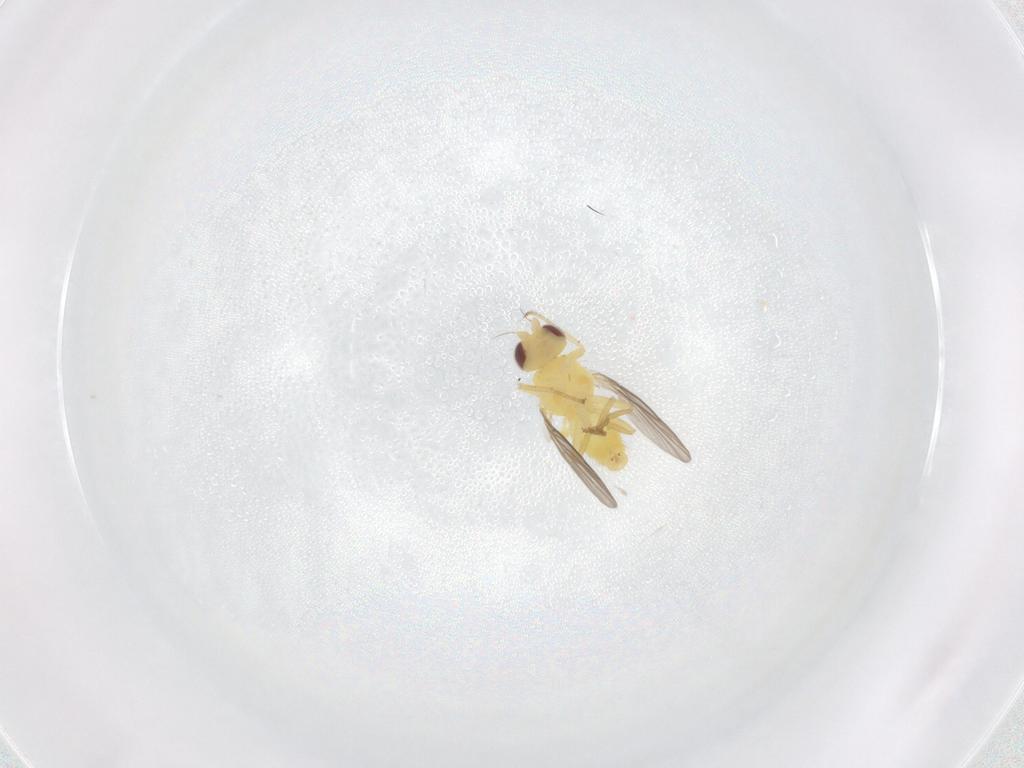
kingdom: Animalia
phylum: Arthropoda
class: Insecta
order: Diptera
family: Agromyzidae
